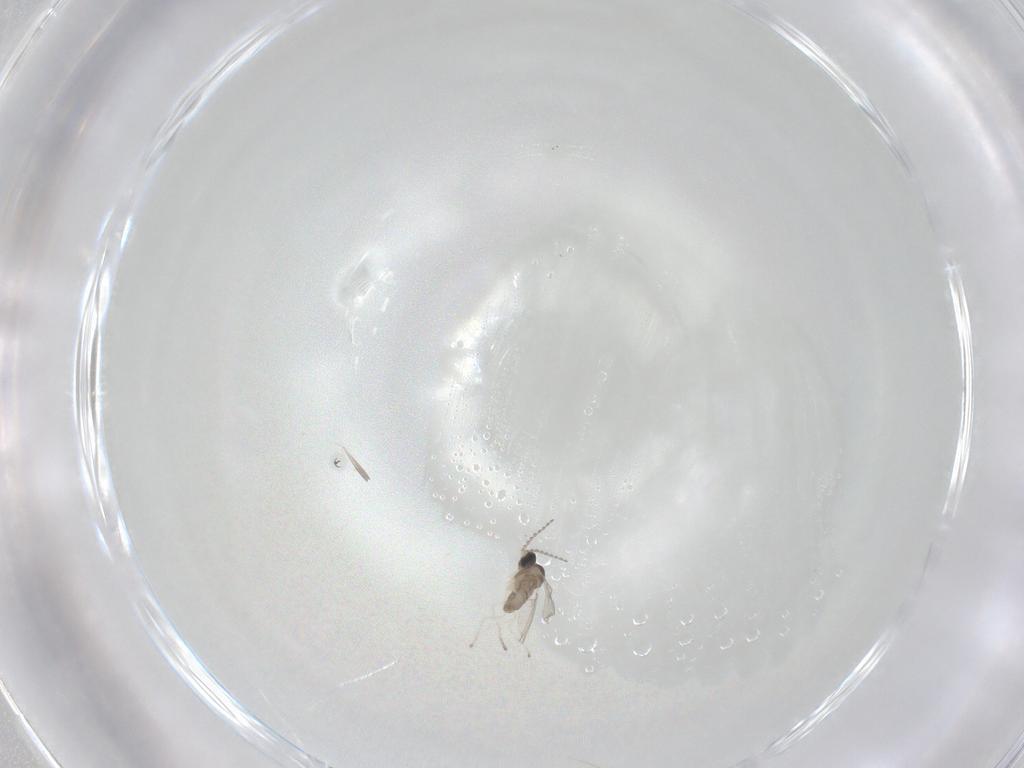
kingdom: Animalia
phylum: Arthropoda
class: Insecta
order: Diptera
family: Cecidomyiidae
